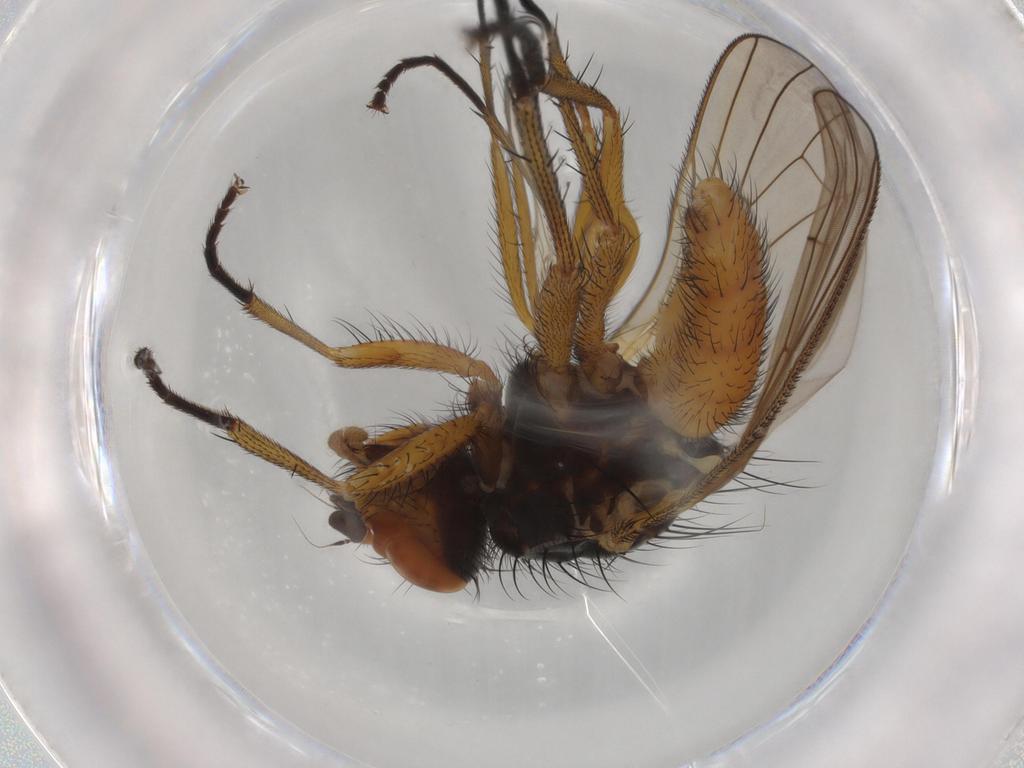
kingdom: Animalia
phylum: Arthropoda
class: Insecta
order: Diptera
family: Anthomyiidae
